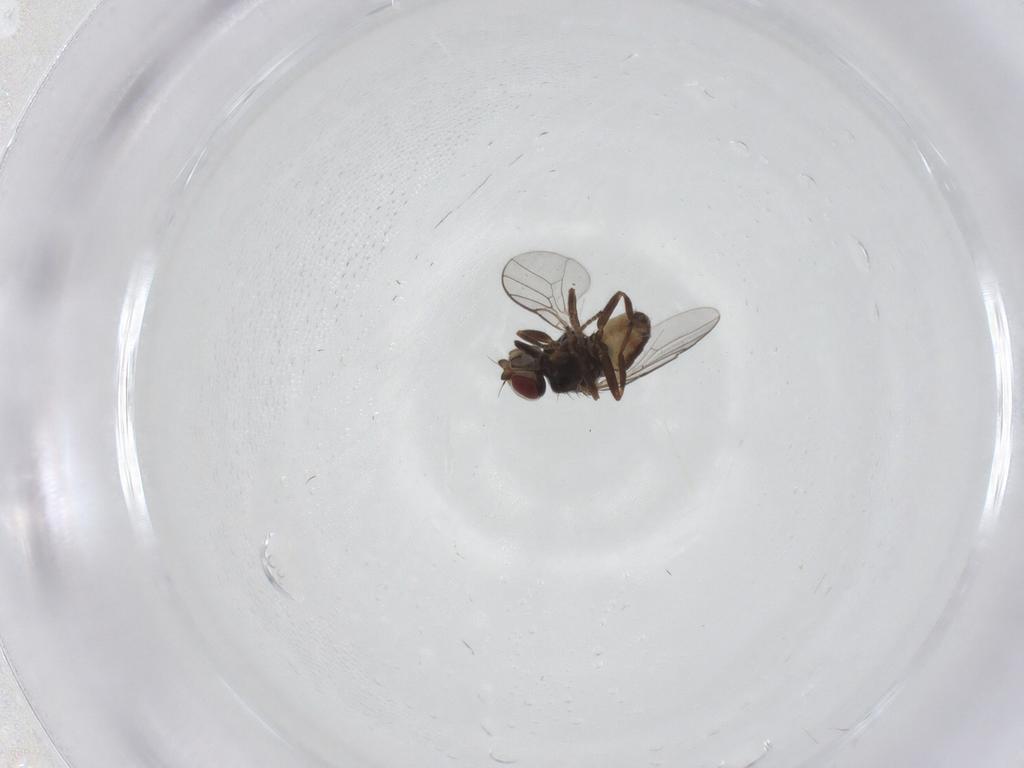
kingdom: Animalia
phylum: Arthropoda
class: Insecta
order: Diptera
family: Chloropidae
